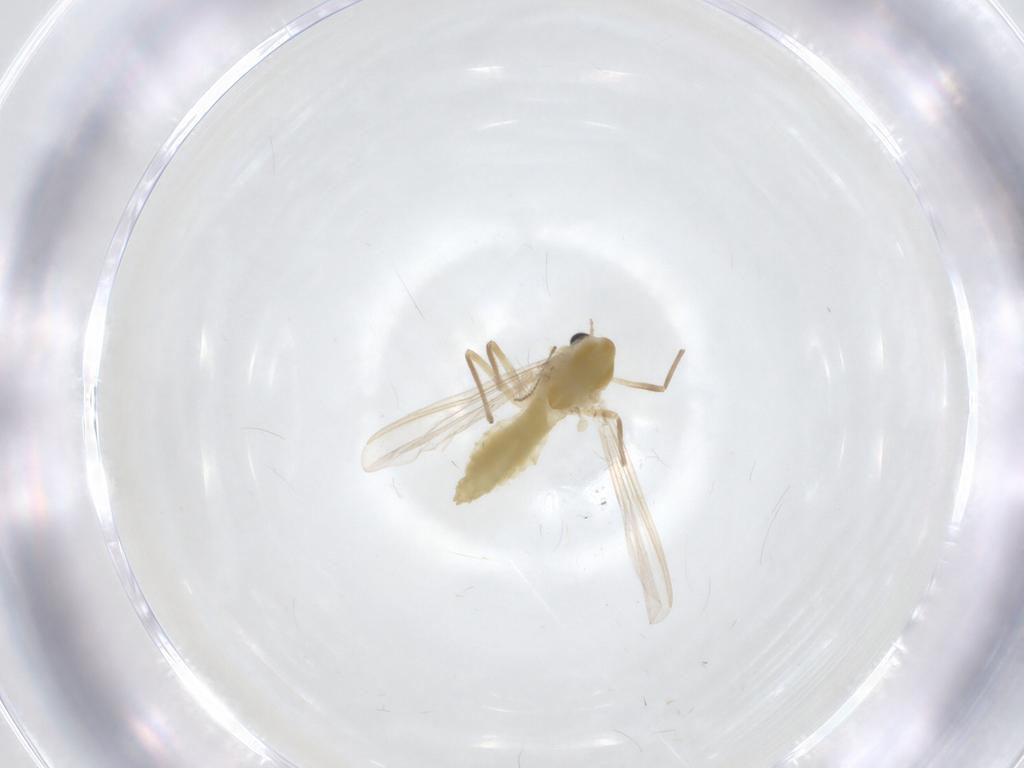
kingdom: Animalia
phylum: Arthropoda
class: Insecta
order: Diptera
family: Chironomidae
